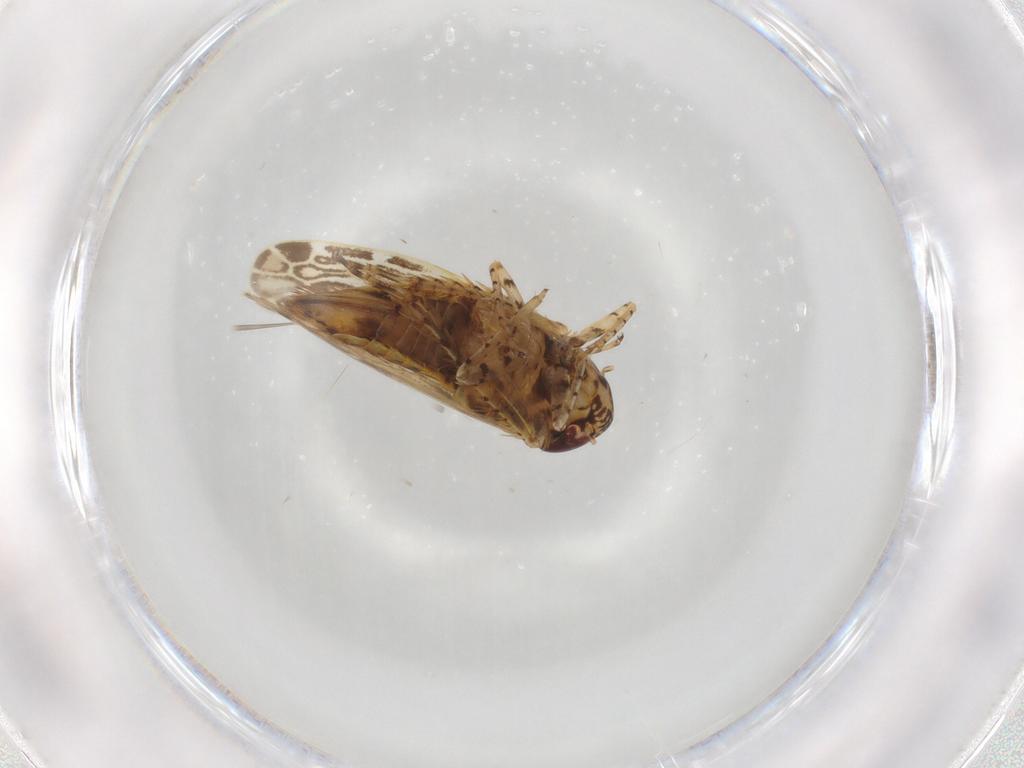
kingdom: Animalia
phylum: Arthropoda
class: Insecta
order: Hemiptera
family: Cicadellidae
